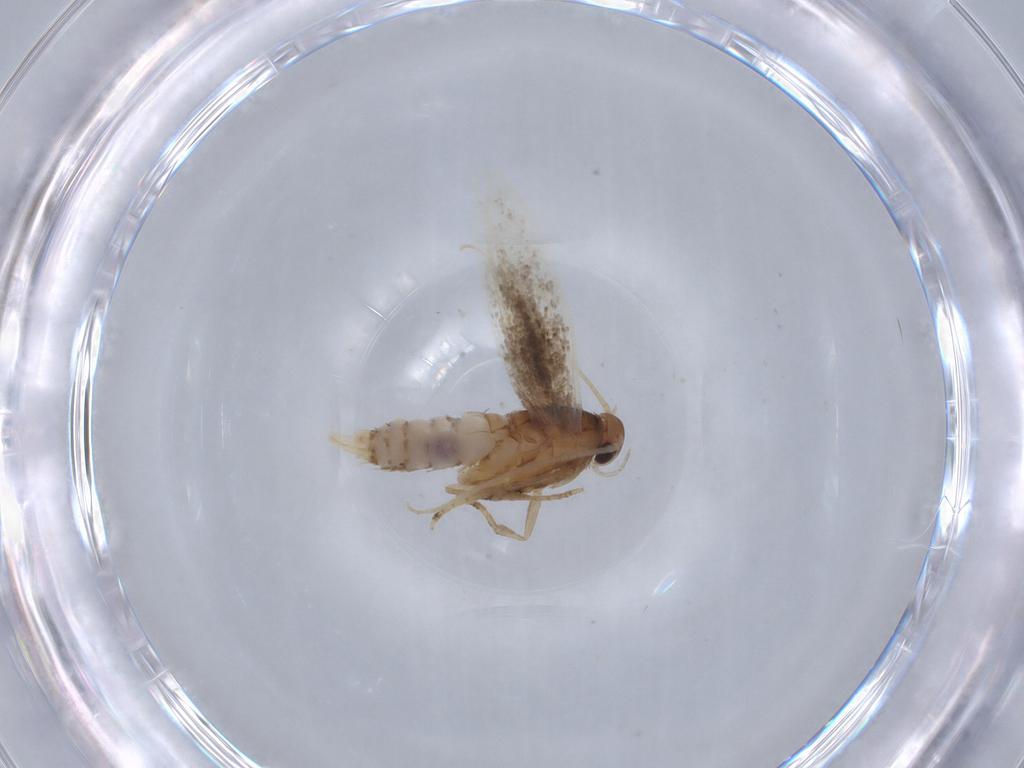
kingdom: Animalia
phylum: Arthropoda
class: Insecta
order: Lepidoptera
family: Elachistidae
